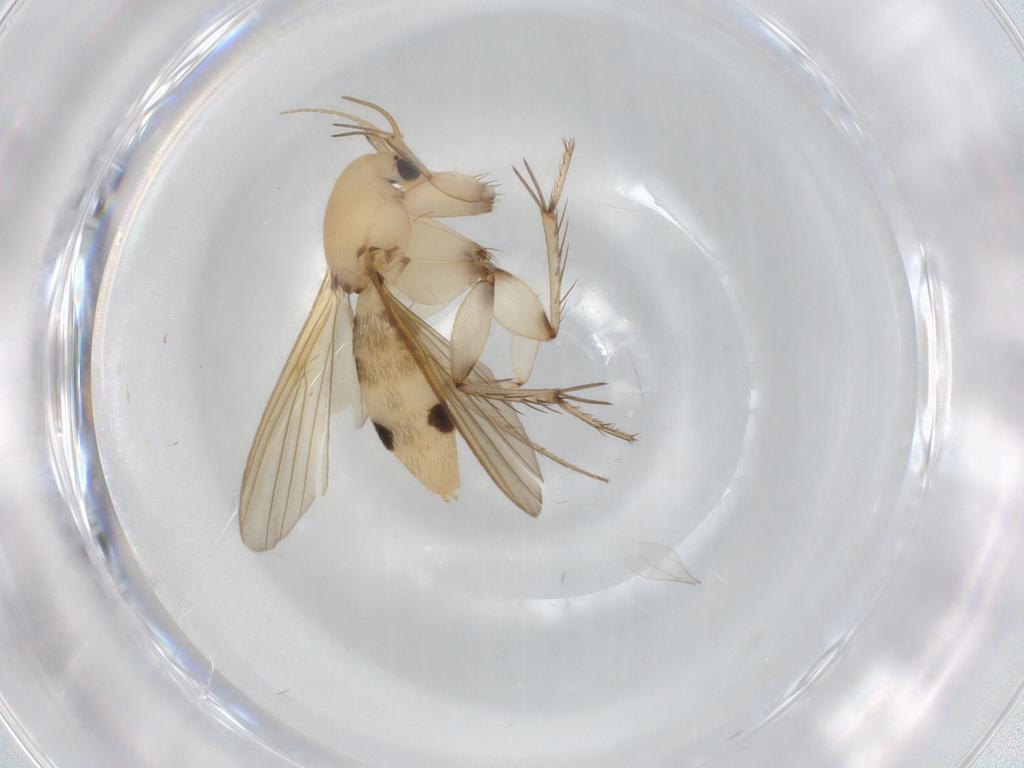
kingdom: Animalia
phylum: Arthropoda
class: Insecta
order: Diptera
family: Mycetophilidae
